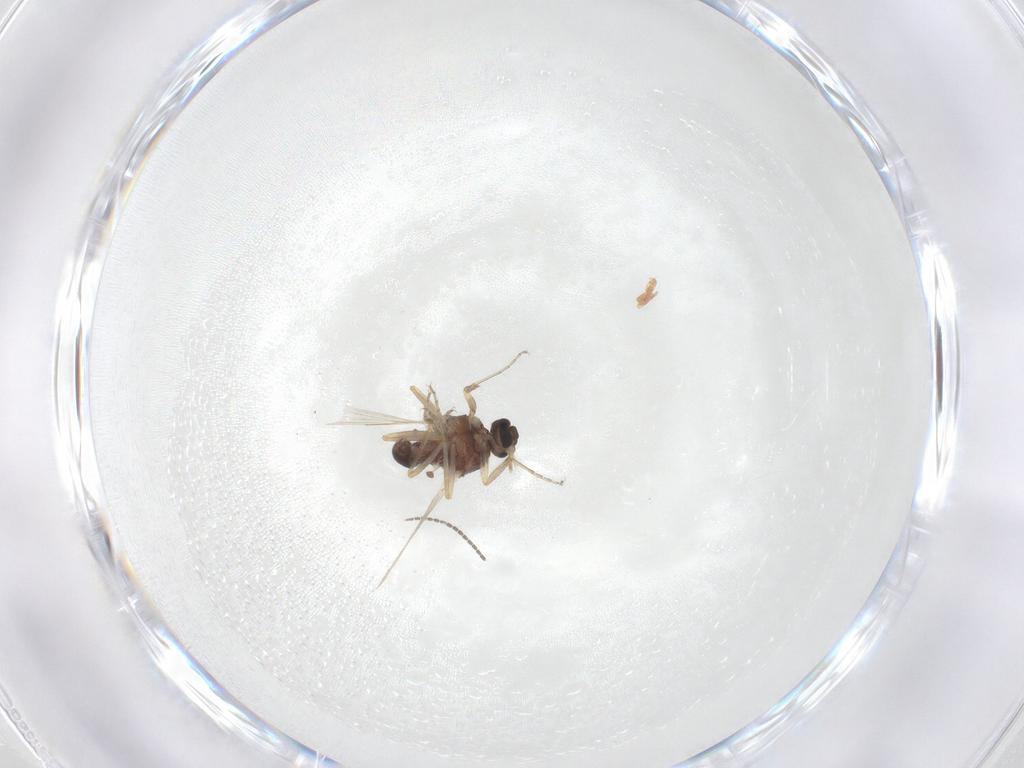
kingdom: Animalia
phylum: Arthropoda
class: Insecta
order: Diptera
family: Ceratopogonidae
